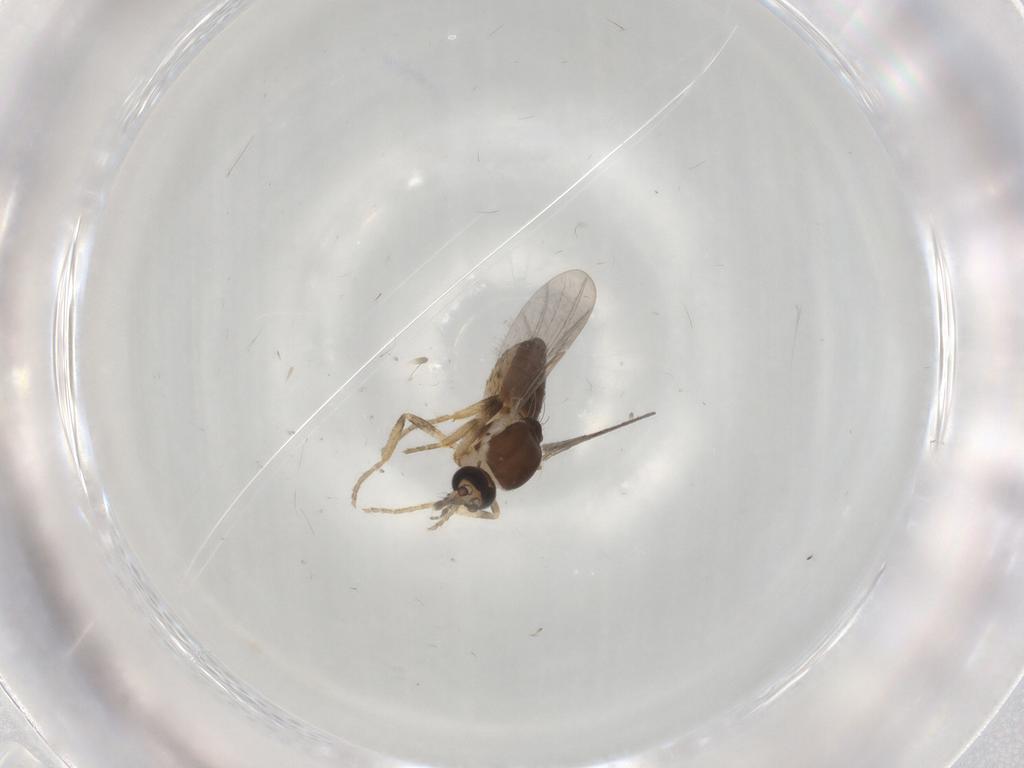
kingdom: Animalia
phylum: Arthropoda
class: Insecta
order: Diptera
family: Ceratopogonidae
